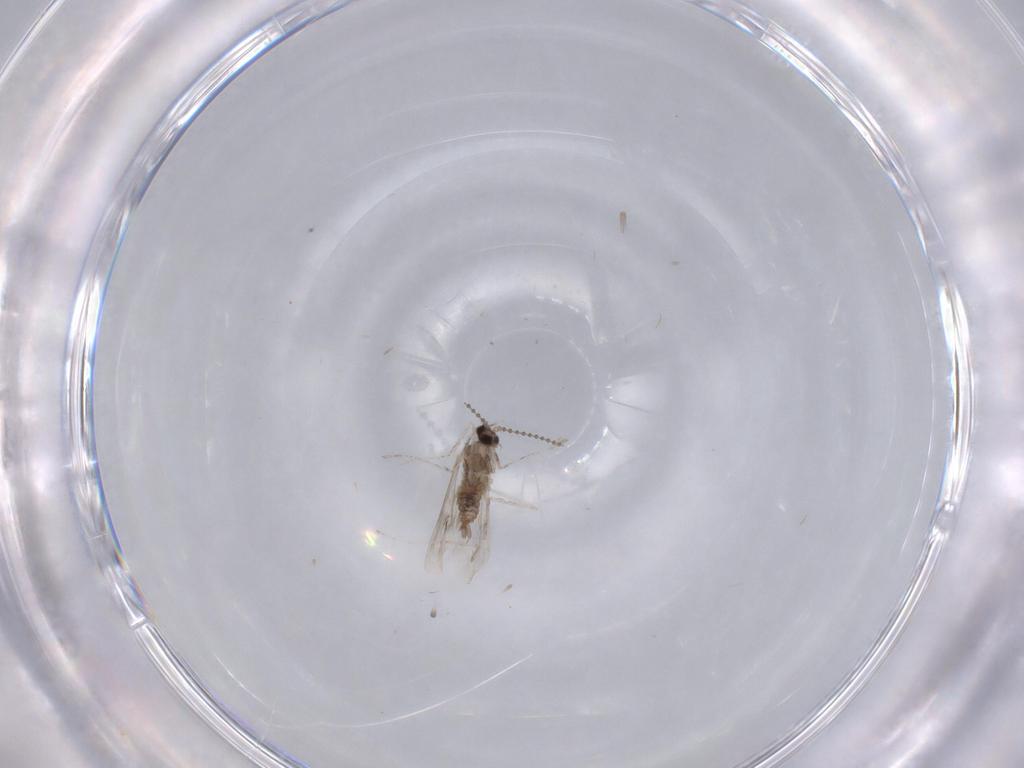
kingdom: Animalia
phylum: Arthropoda
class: Insecta
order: Diptera
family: Cecidomyiidae
